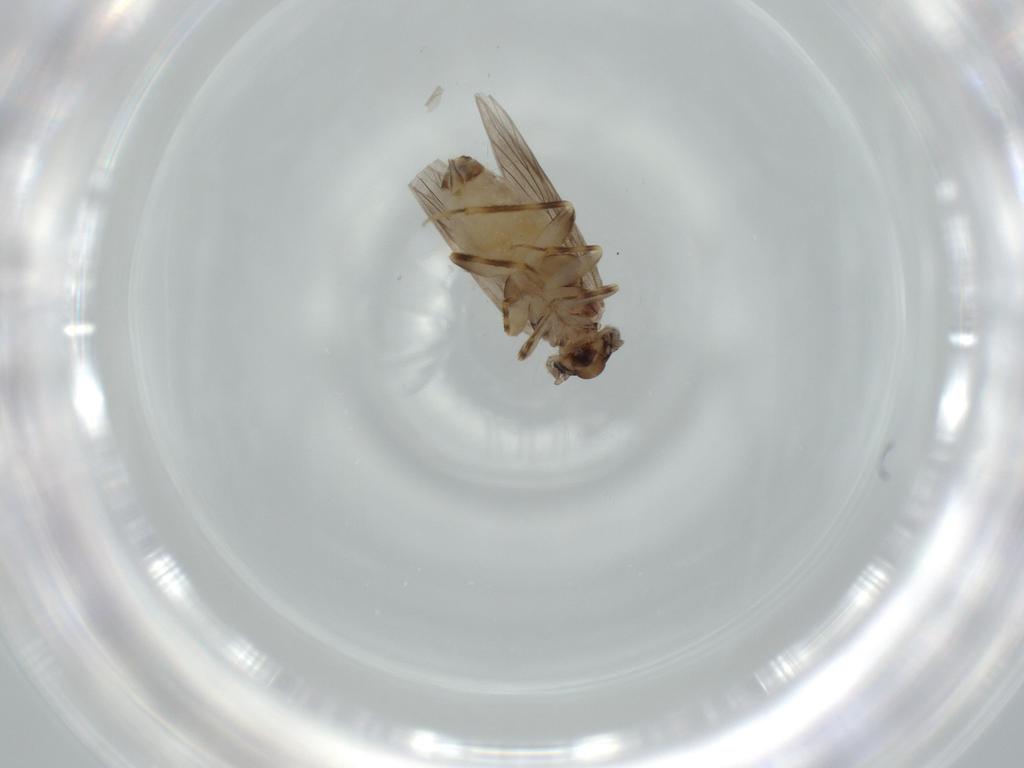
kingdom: Animalia
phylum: Arthropoda
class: Insecta
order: Psocodea
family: Lepidopsocidae
